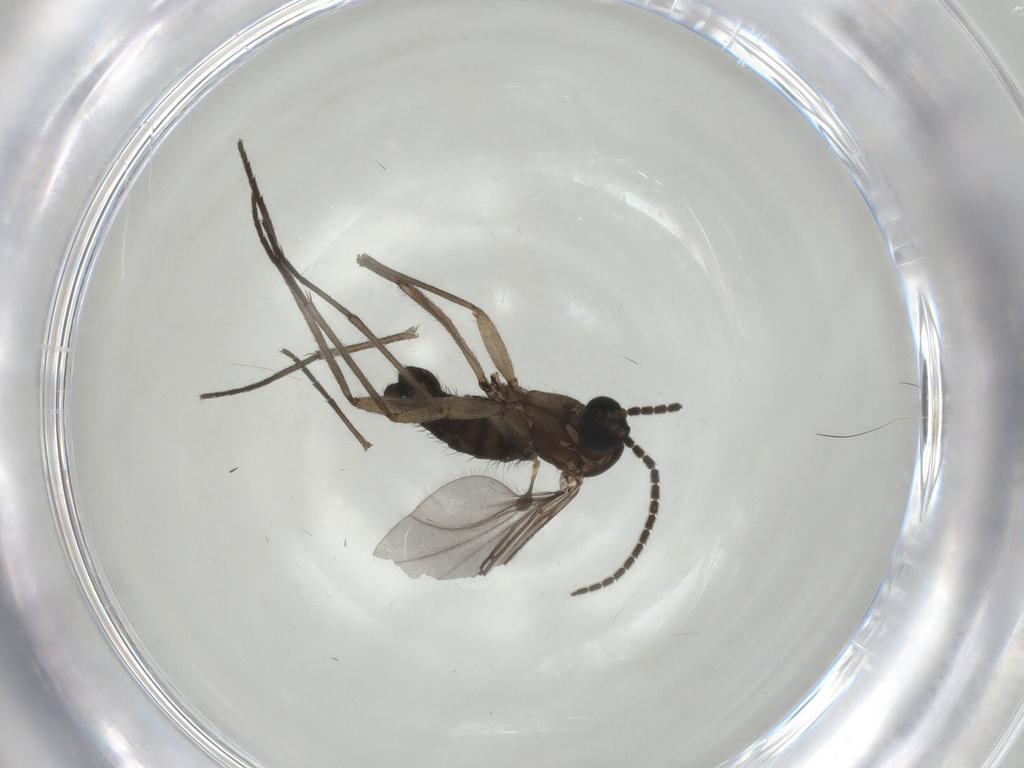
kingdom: Animalia
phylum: Arthropoda
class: Insecta
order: Diptera
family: Sciaridae
